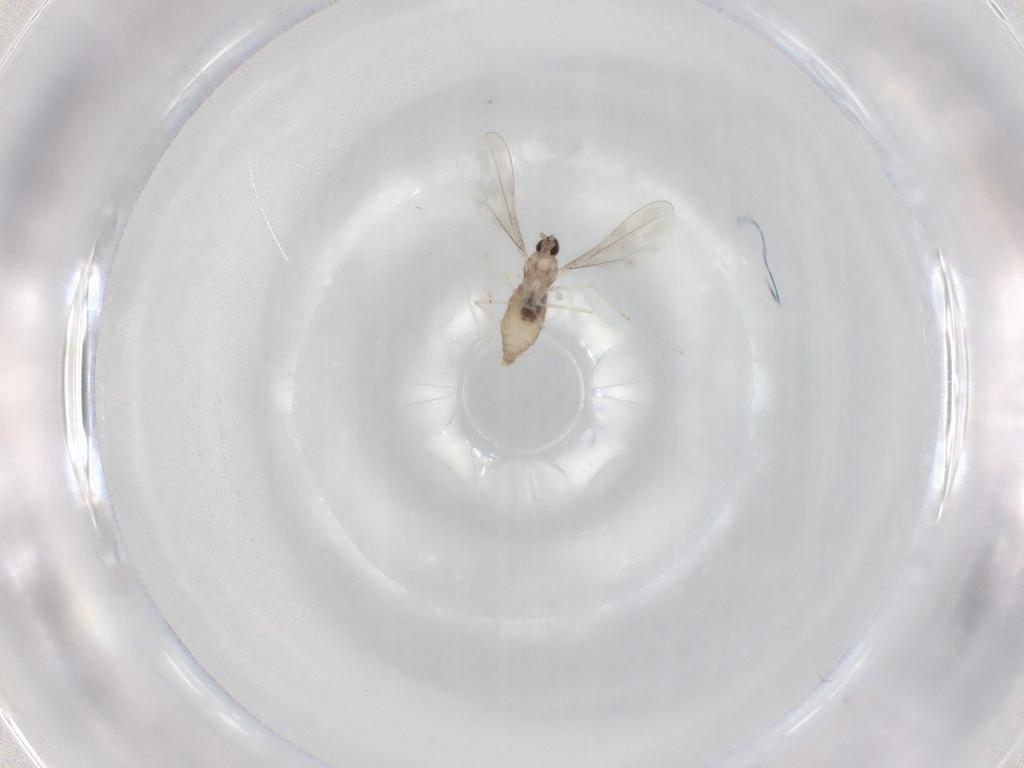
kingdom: Animalia
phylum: Arthropoda
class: Insecta
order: Diptera
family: Cecidomyiidae
